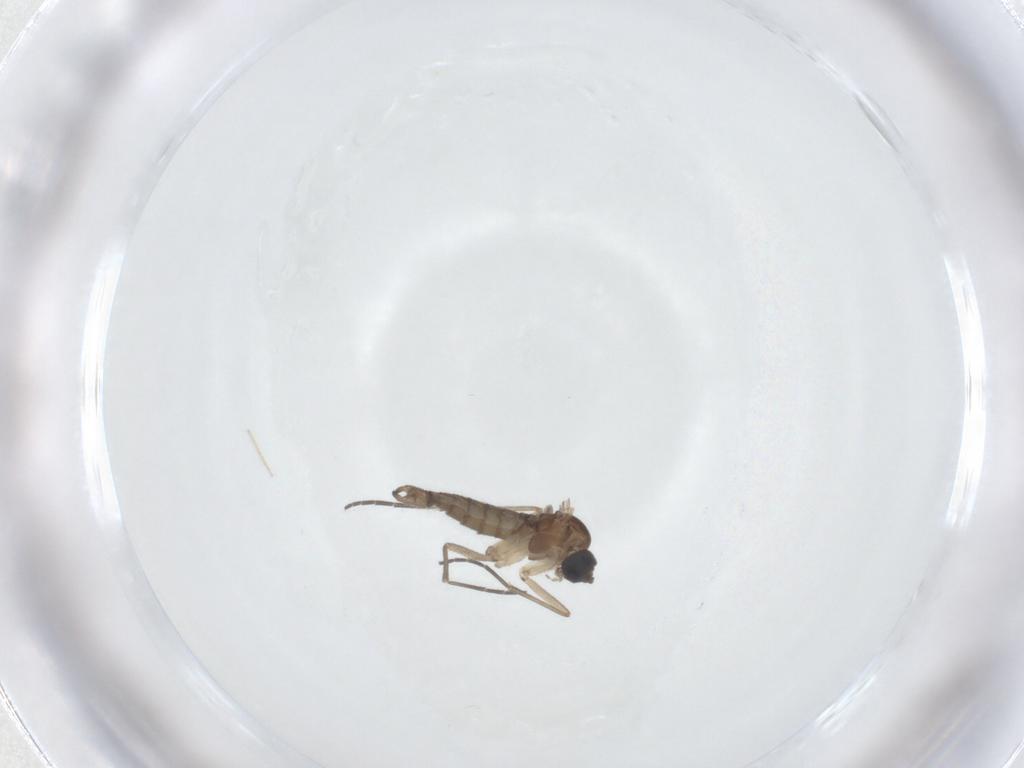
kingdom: Animalia
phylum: Arthropoda
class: Insecta
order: Diptera
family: Sciaridae
